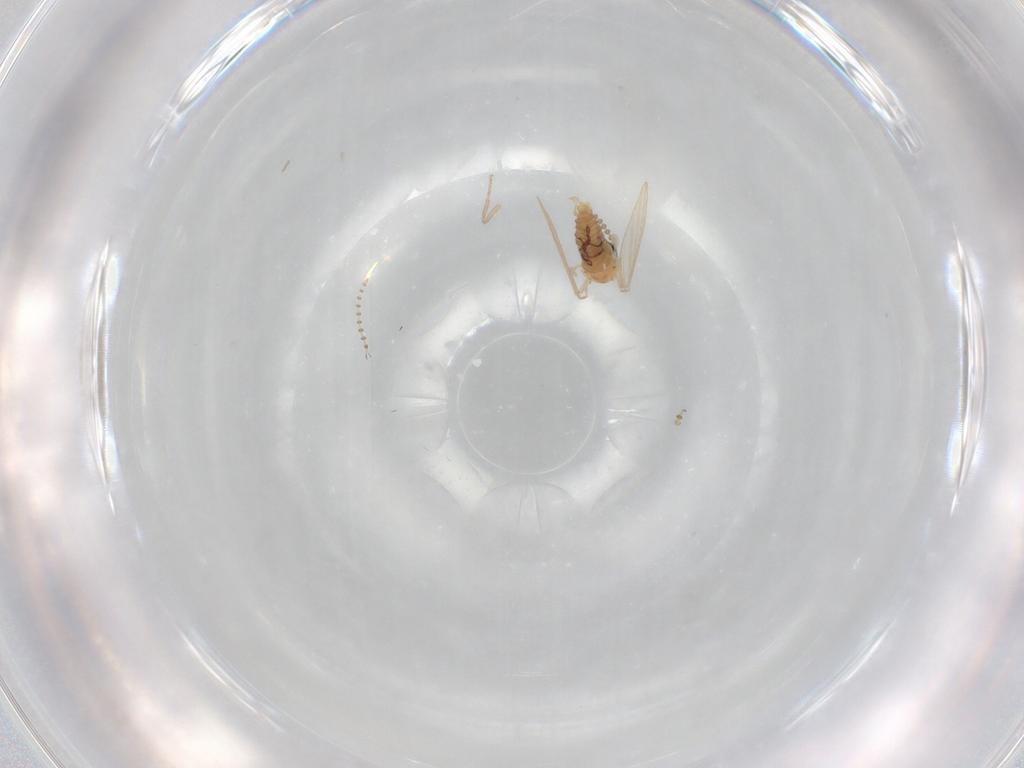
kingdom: Animalia
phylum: Arthropoda
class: Insecta
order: Diptera
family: Psychodidae
